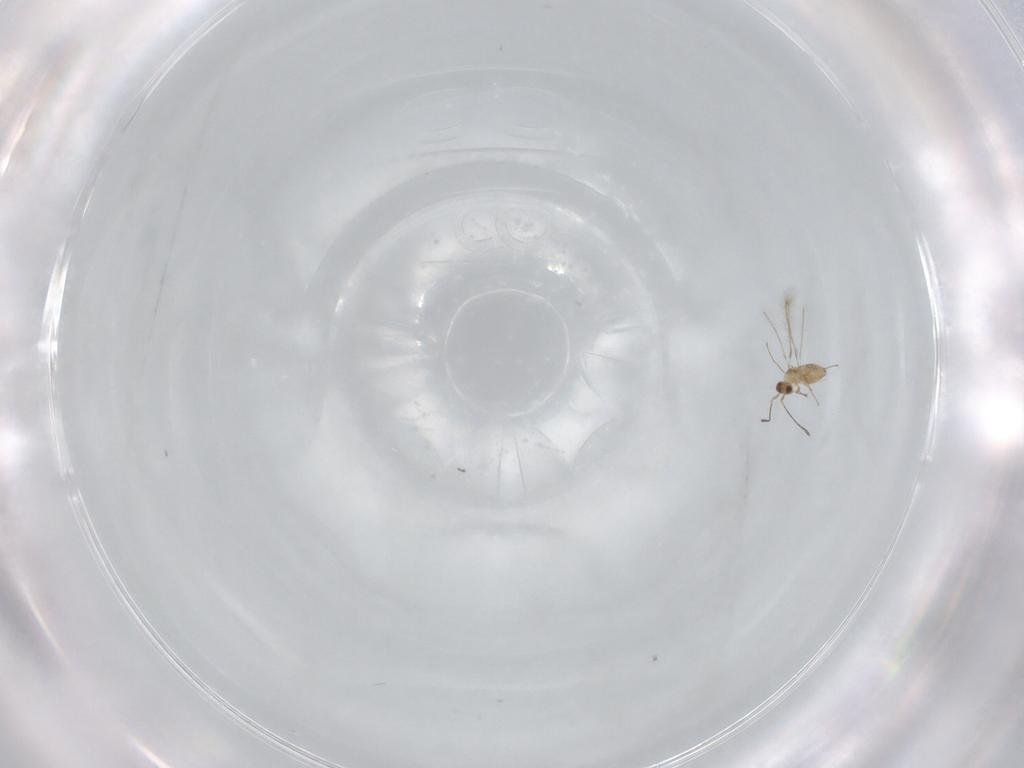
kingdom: Animalia
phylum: Arthropoda
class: Insecta
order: Hymenoptera
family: Mymaridae
